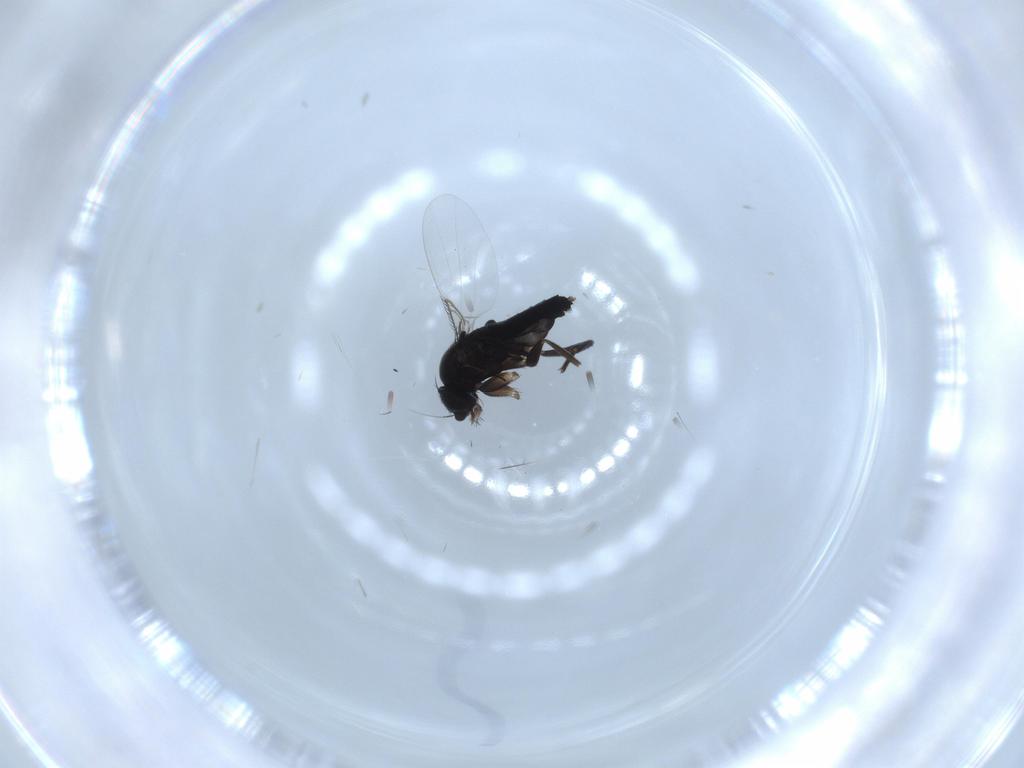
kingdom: Animalia
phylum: Arthropoda
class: Insecta
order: Diptera
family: Phoridae
